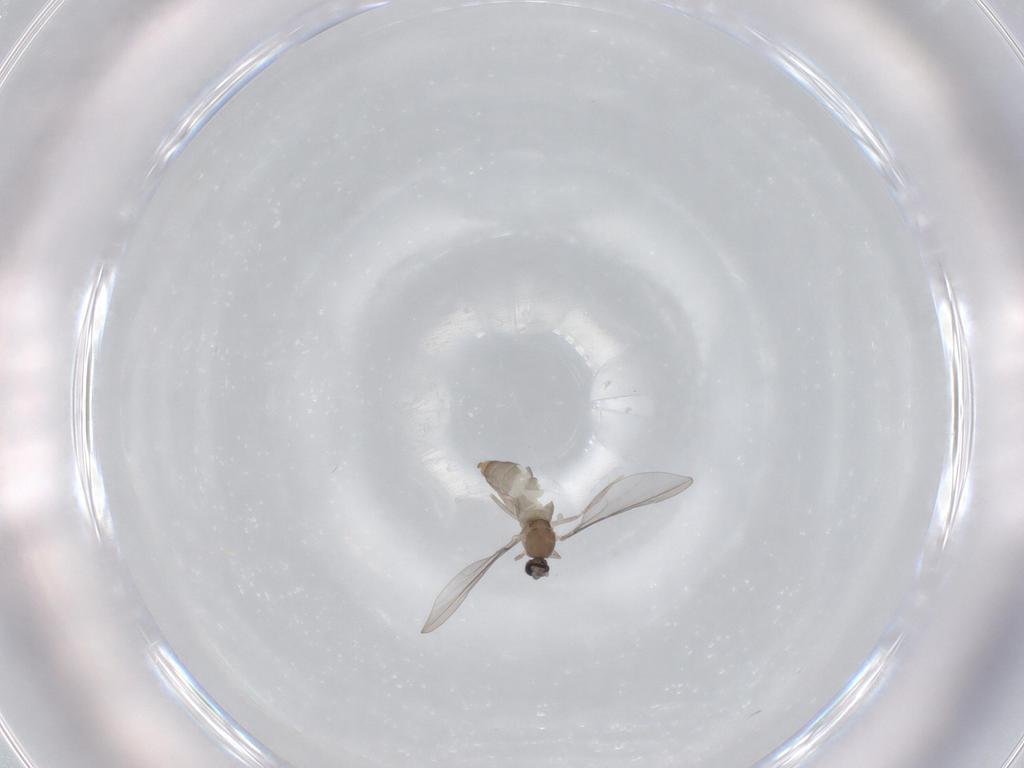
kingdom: Animalia
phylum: Arthropoda
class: Insecta
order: Diptera
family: Cecidomyiidae
